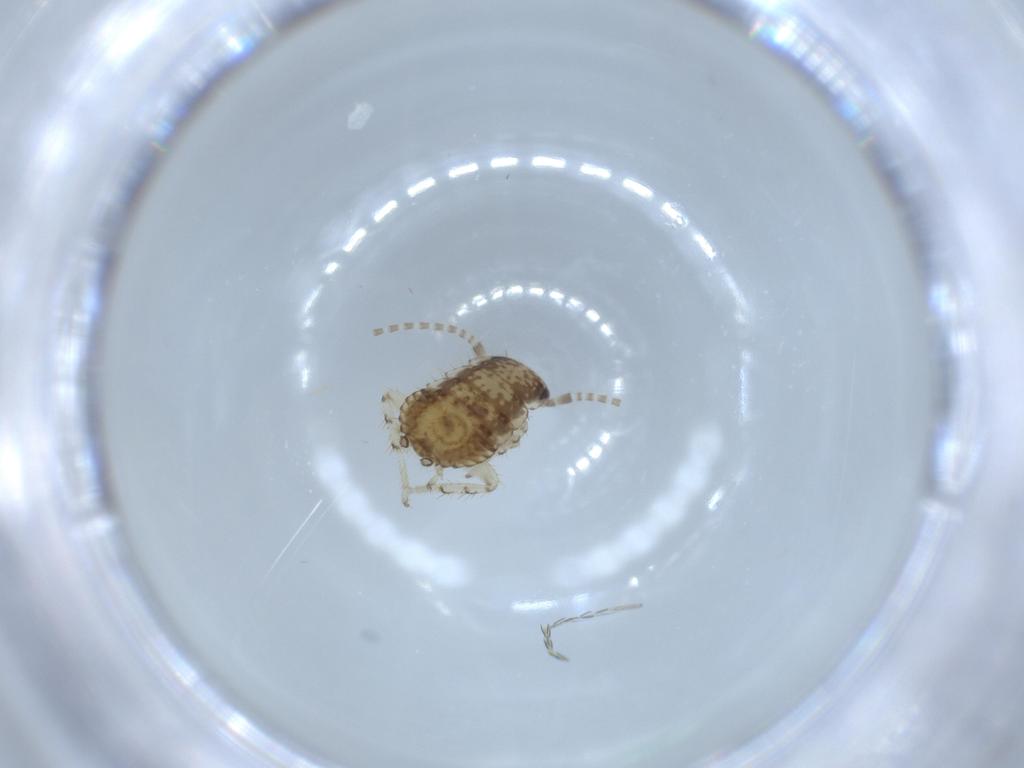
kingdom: Animalia
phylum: Arthropoda
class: Insecta
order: Blattodea
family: Ectobiidae
